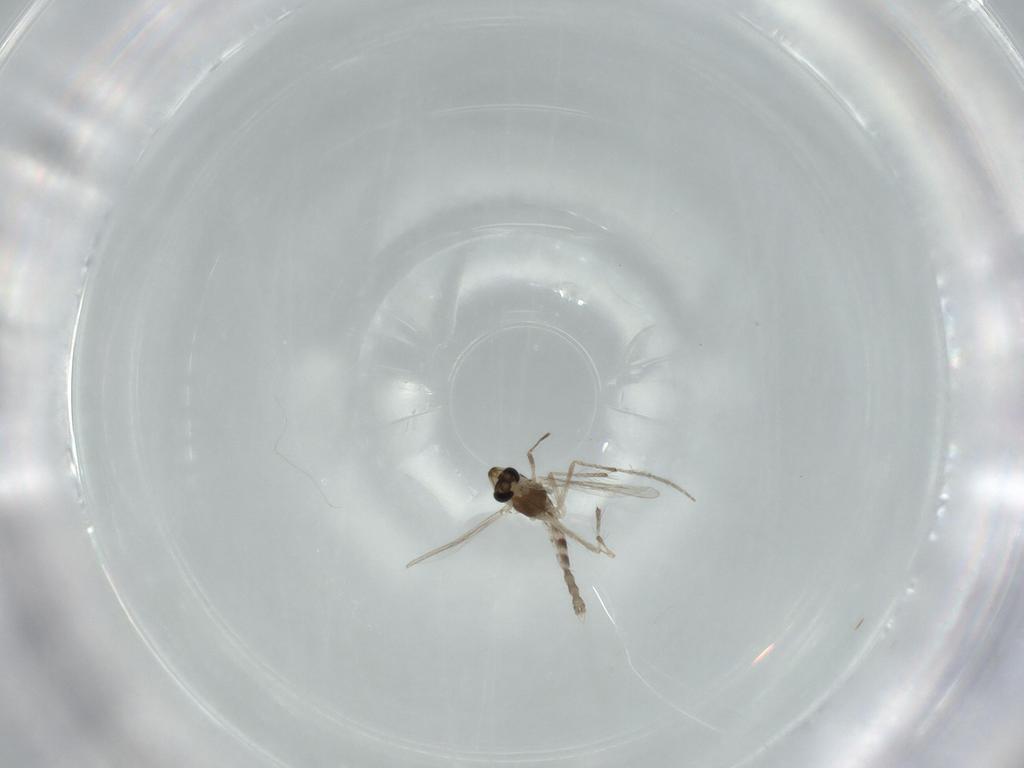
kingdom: Animalia
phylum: Arthropoda
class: Insecta
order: Diptera
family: Chironomidae
